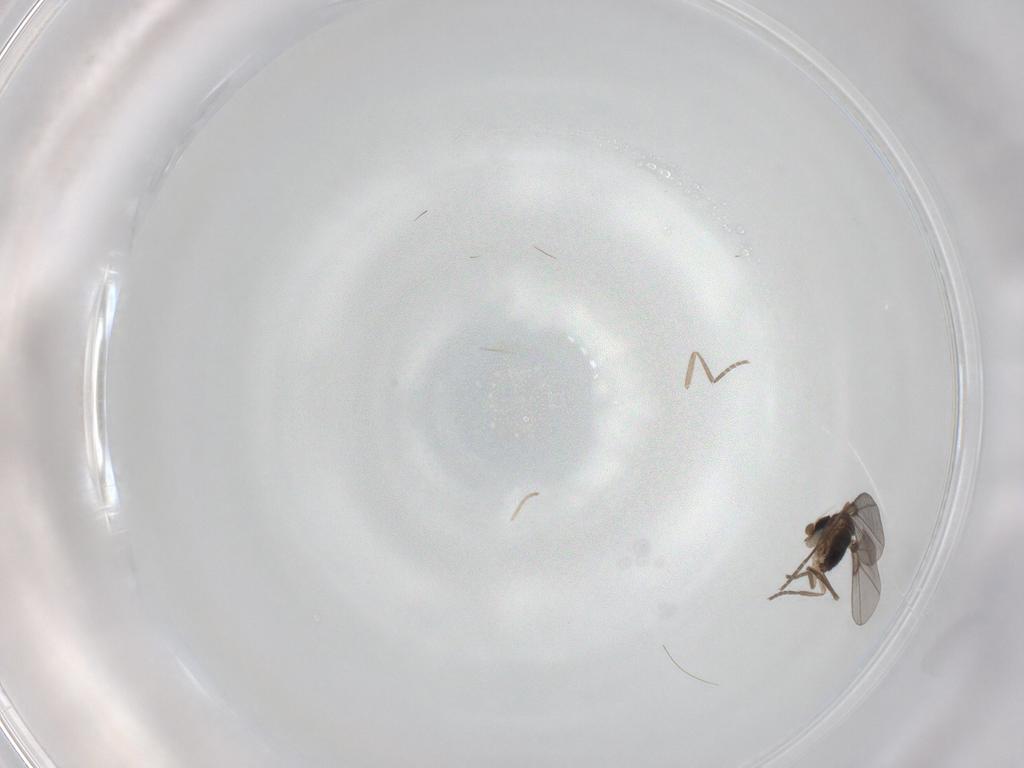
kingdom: Animalia
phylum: Arthropoda
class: Insecta
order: Diptera
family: Phoridae
